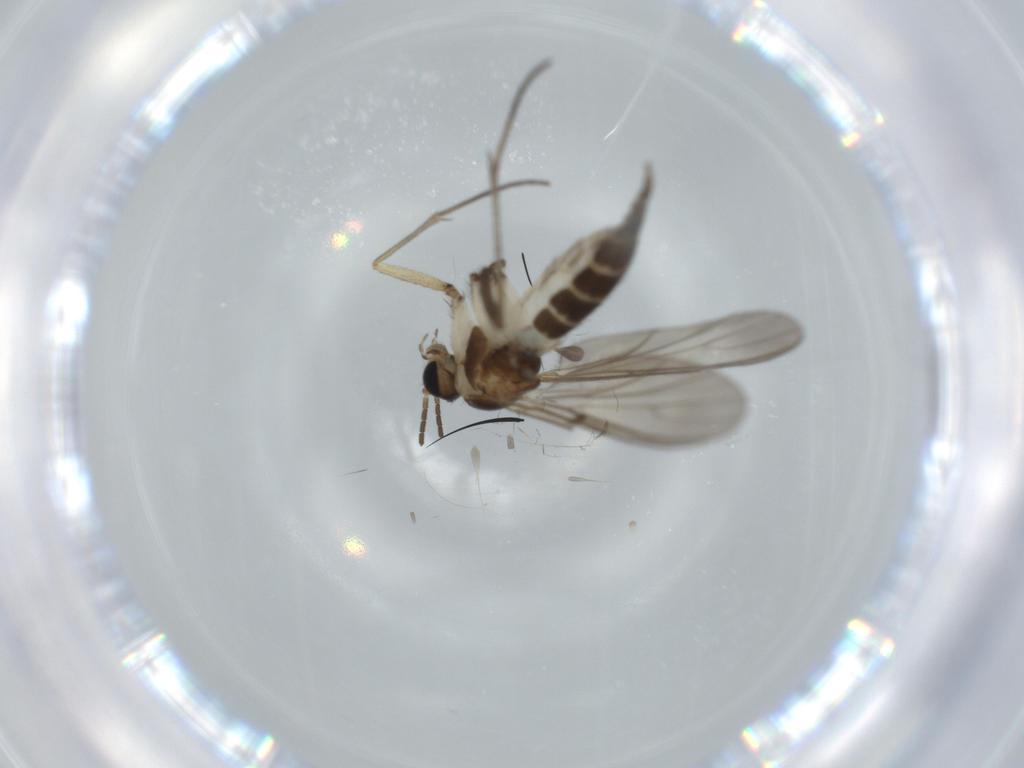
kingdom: Animalia
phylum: Arthropoda
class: Insecta
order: Diptera
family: Sciaridae
